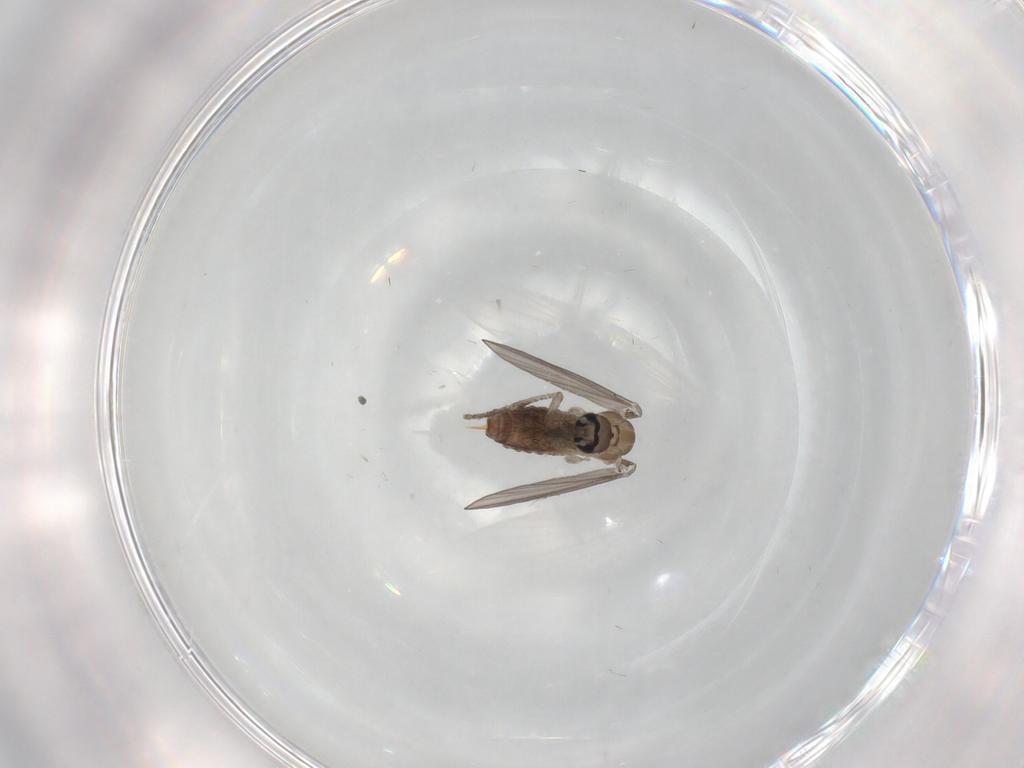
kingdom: Animalia
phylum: Arthropoda
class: Insecta
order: Diptera
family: Psychodidae
